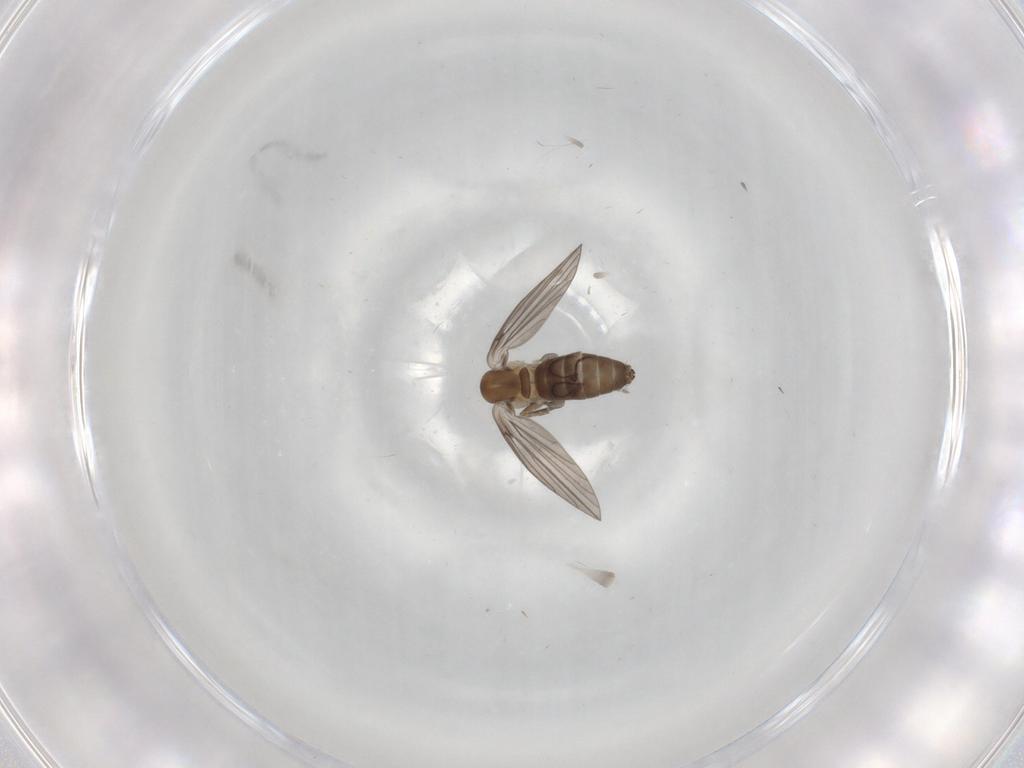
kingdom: Animalia
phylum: Arthropoda
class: Insecta
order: Diptera
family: Psychodidae
